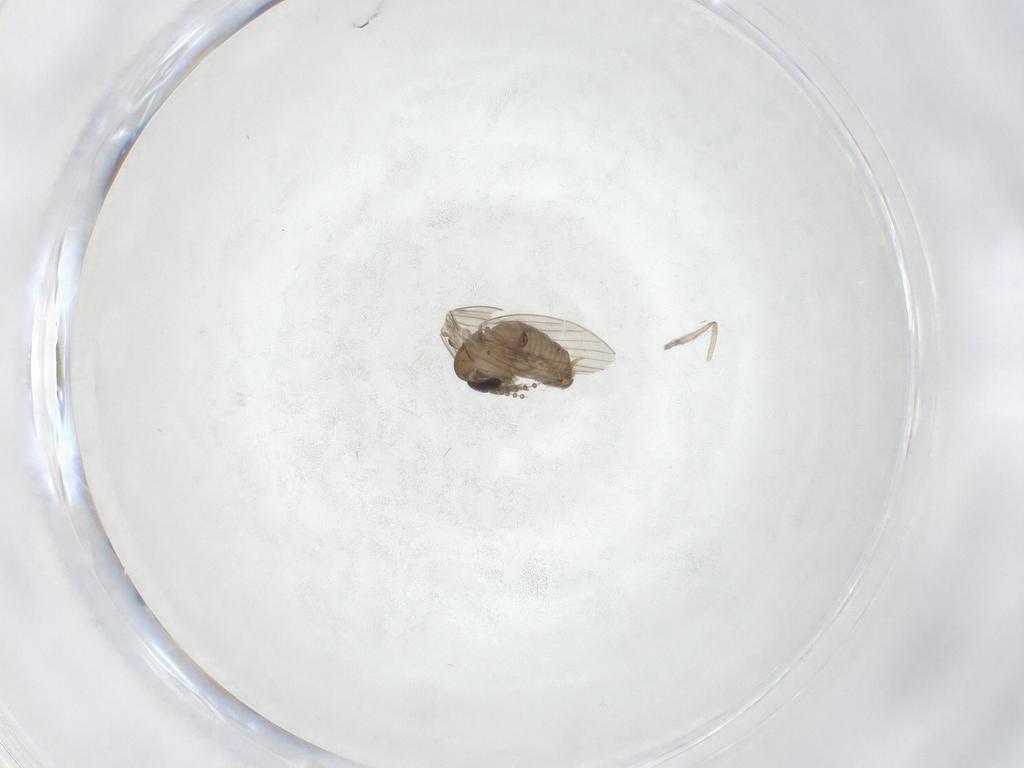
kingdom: Animalia
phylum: Arthropoda
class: Insecta
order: Diptera
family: Psychodidae
